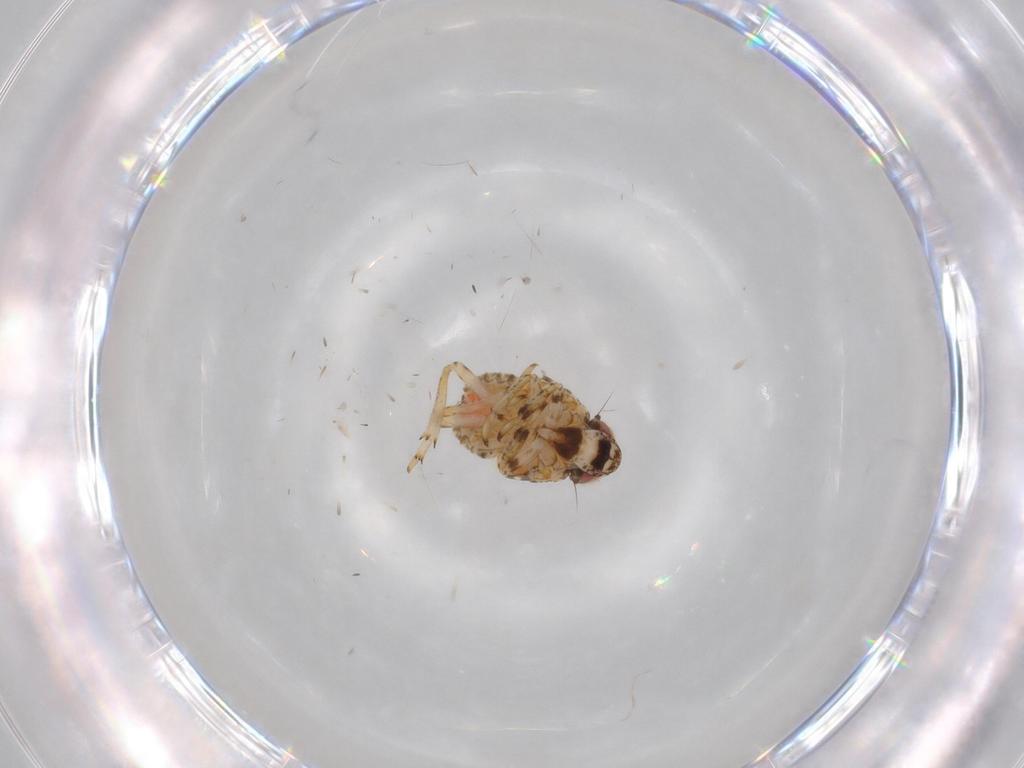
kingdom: Animalia
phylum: Arthropoda
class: Insecta
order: Hemiptera
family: Issidae
